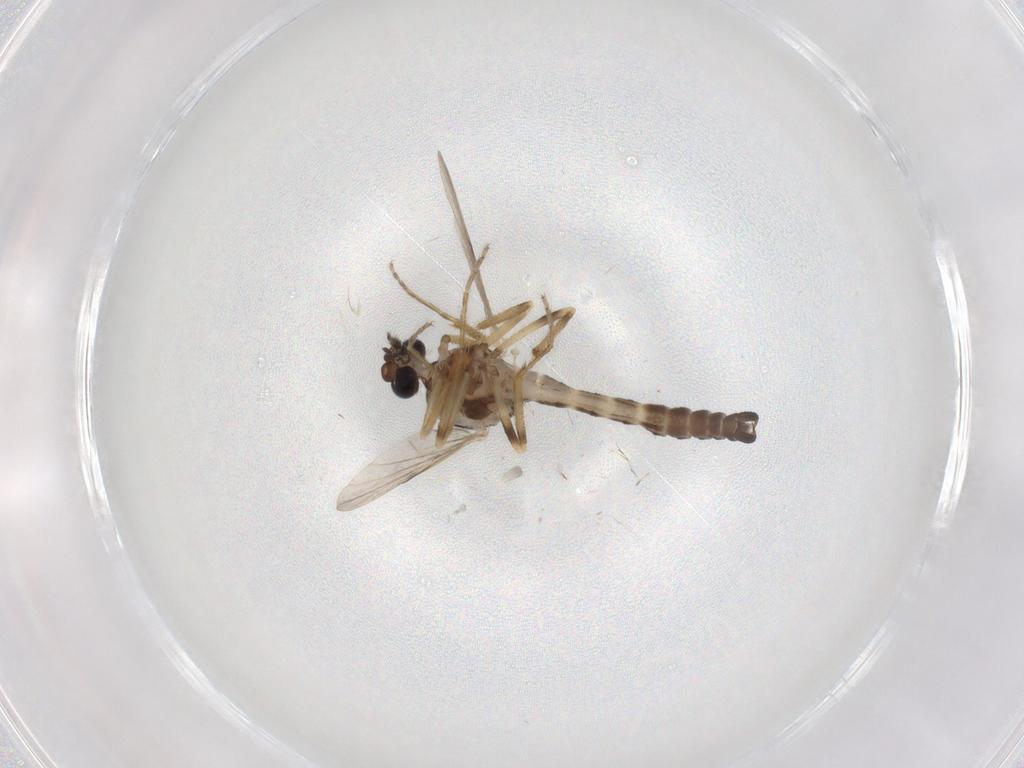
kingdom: Animalia
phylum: Arthropoda
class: Insecta
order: Diptera
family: Ceratopogonidae
